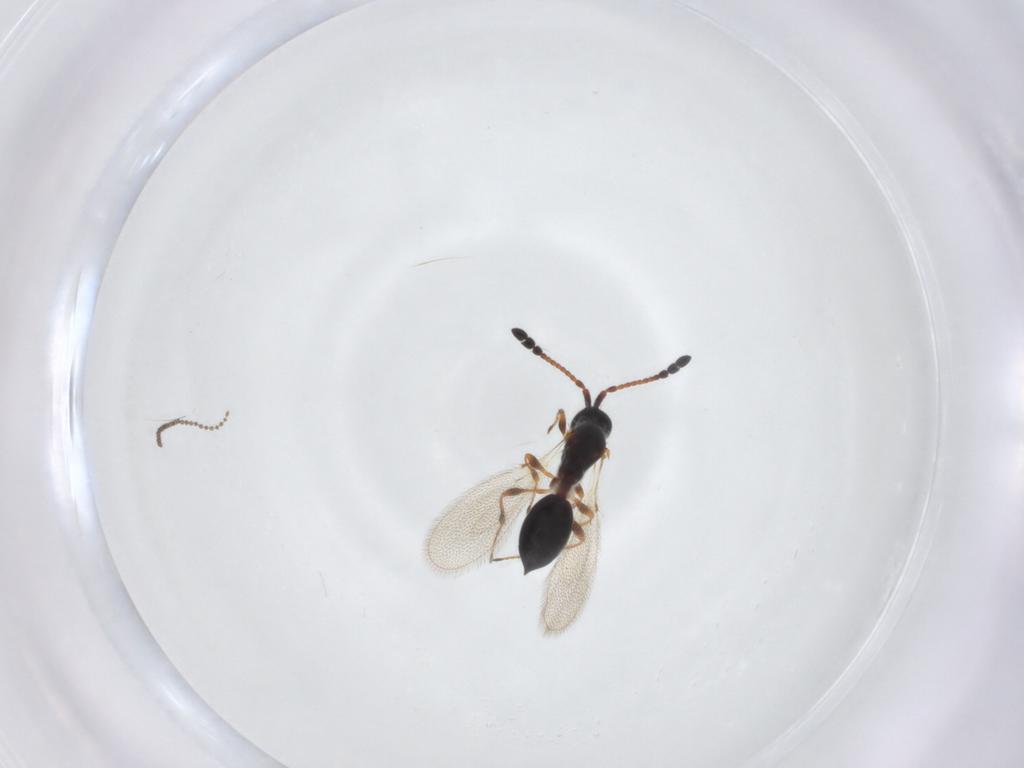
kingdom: Animalia
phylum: Arthropoda
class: Insecta
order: Hymenoptera
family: Diapriidae
